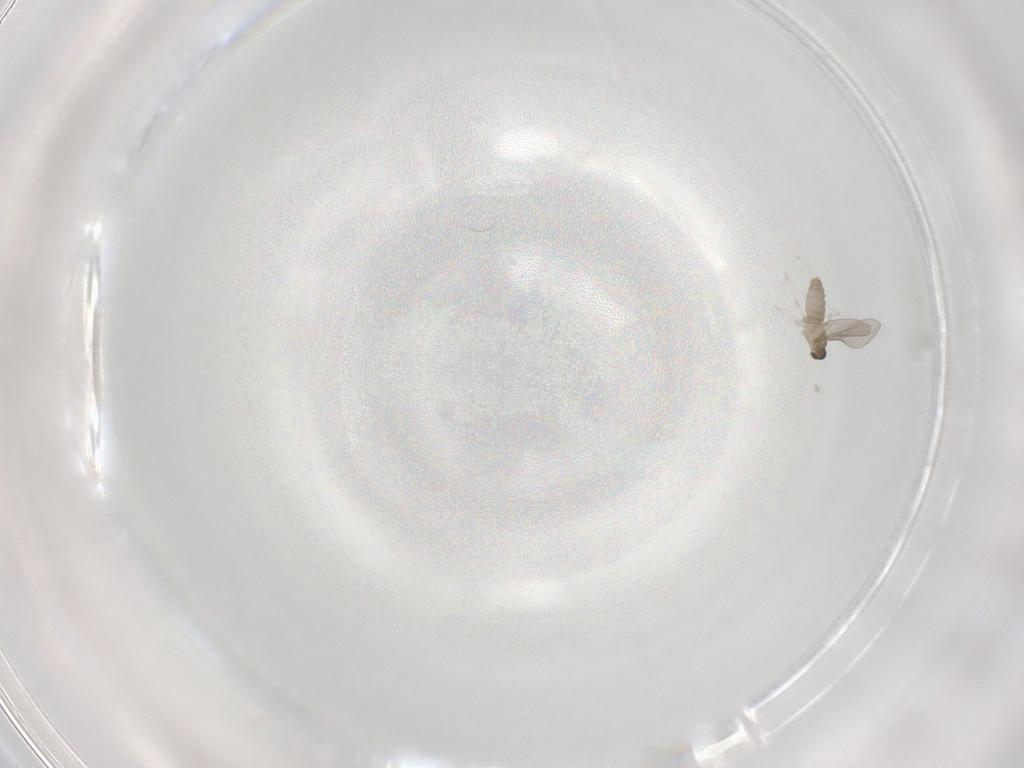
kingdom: Animalia
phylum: Arthropoda
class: Insecta
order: Diptera
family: Cecidomyiidae
